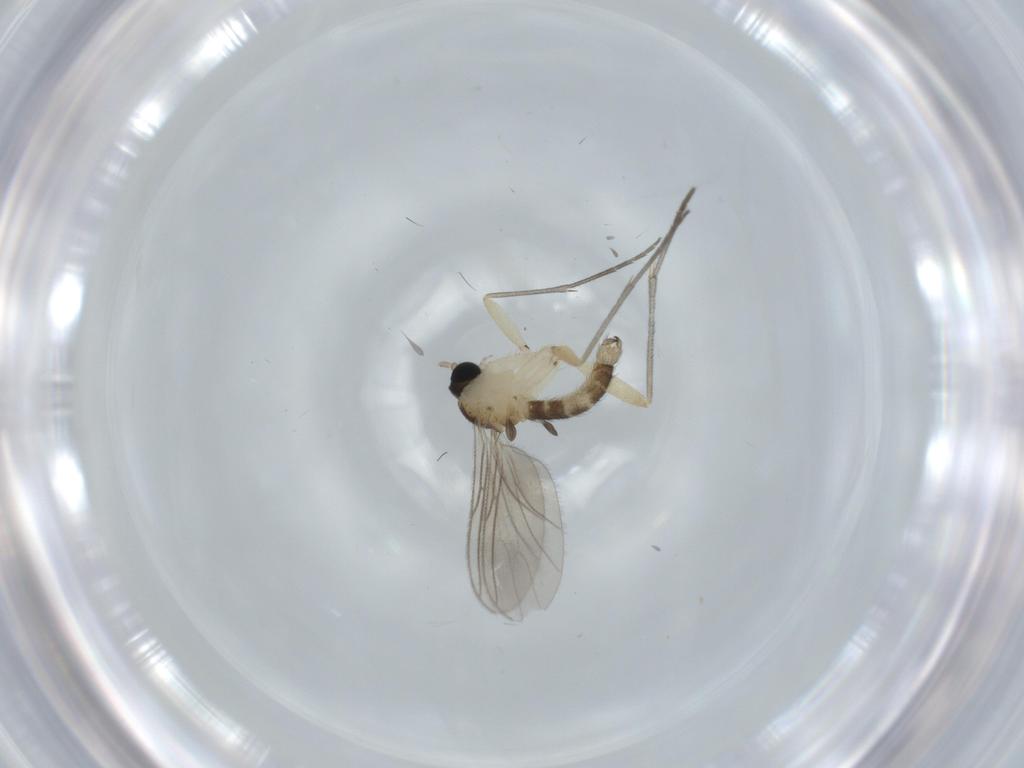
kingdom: Animalia
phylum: Arthropoda
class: Insecta
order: Diptera
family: Sciaridae
